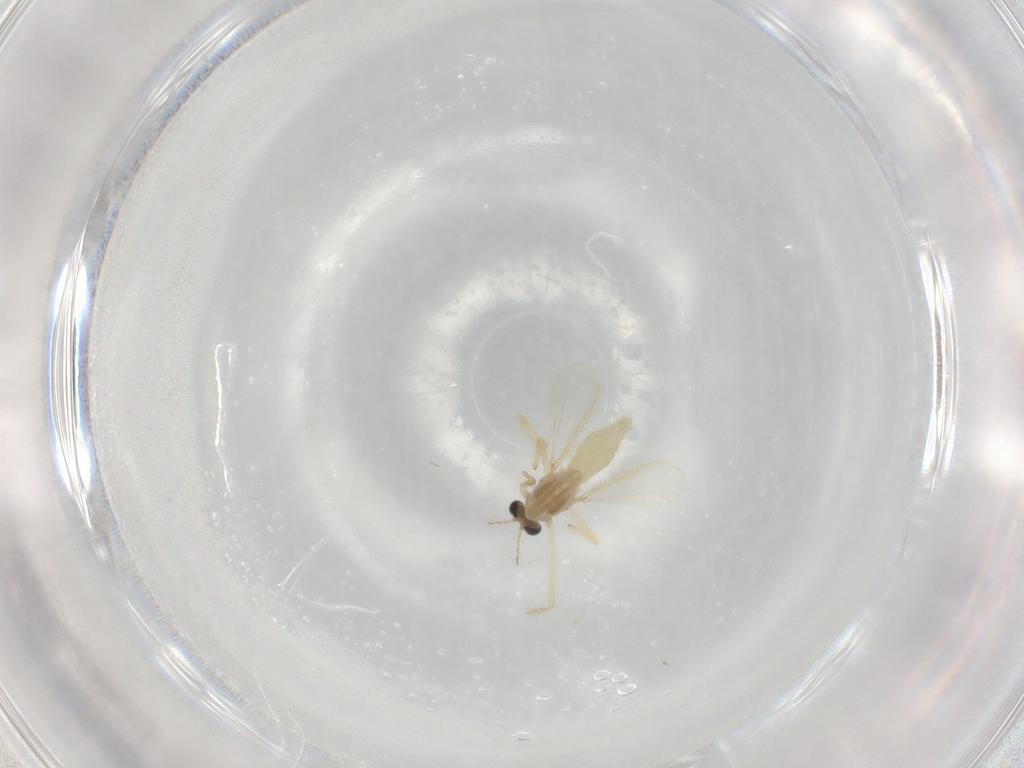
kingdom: Animalia
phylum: Arthropoda
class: Insecta
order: Diptera
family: Chironomidae
